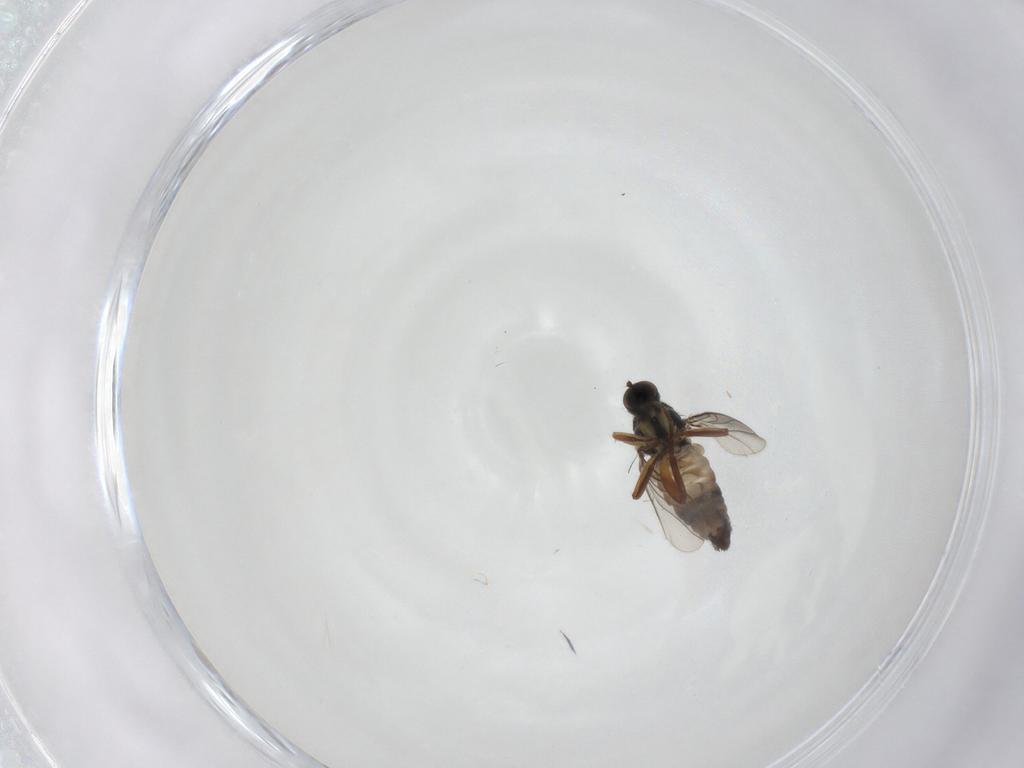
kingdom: Animalia
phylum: Arthropoda
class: Insecta
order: Diptera
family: Hybotidae
